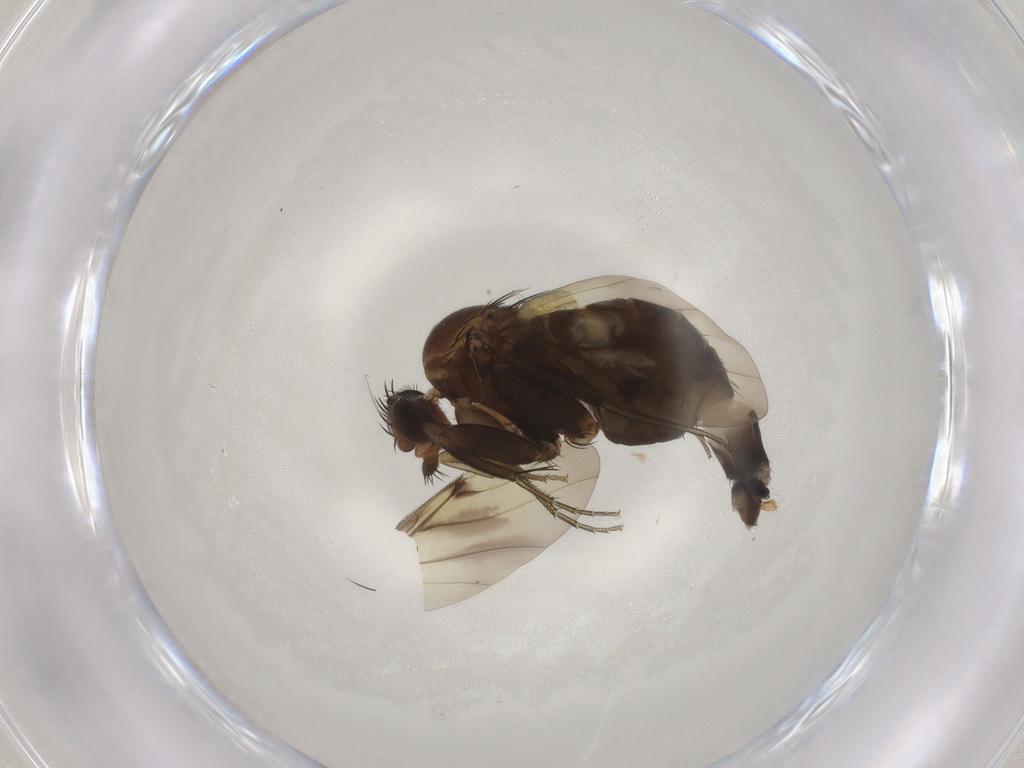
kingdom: Animalia
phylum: Arthropoda
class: Insecta
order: Diptera
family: Phoridae
